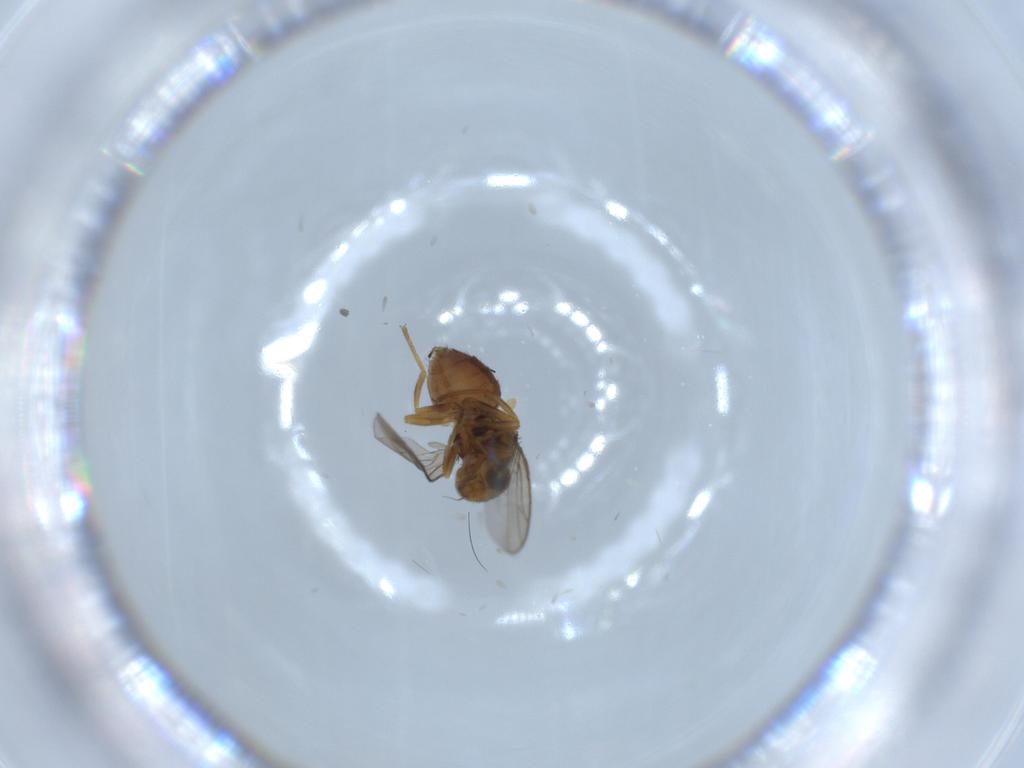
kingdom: Animalia
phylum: Arthropoda
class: Insecta
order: Diptera
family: Chloropidae
